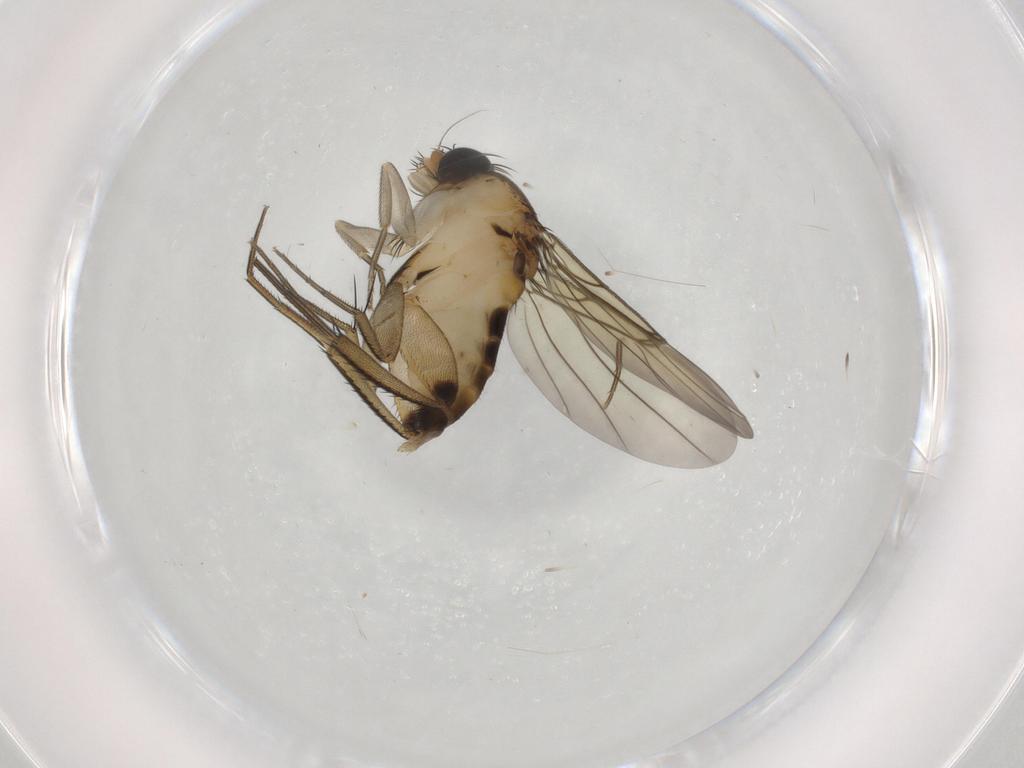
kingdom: Animalia
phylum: Arthropoda
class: Insecta
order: Diptera
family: Phoridae
